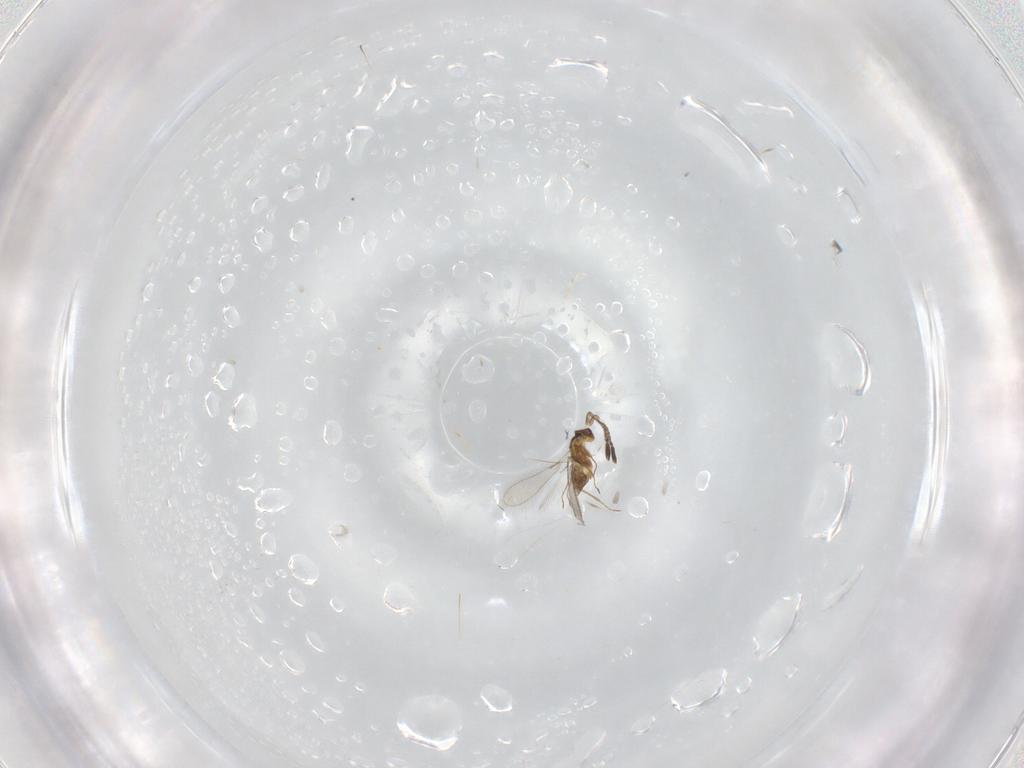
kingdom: Animalia
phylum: Arthropoda
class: Insecta
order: Hymenoptera
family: Mymaridae
